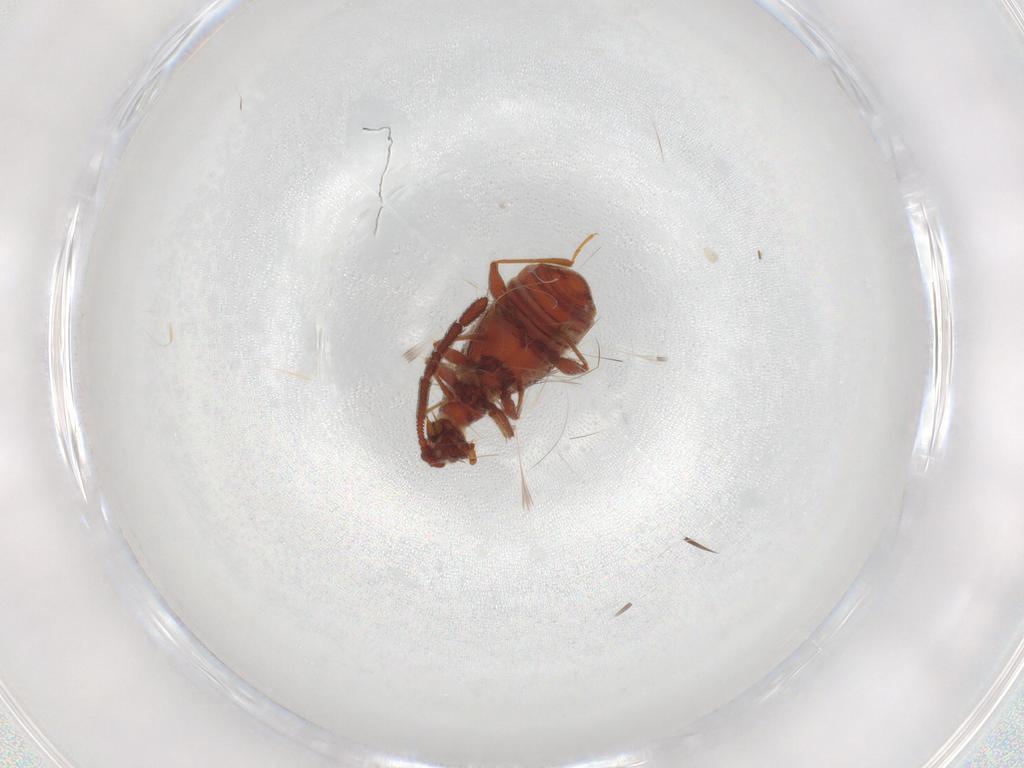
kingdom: Animalia
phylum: Arthropoda
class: Insecta
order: Coleoptera
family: Staphylinidae
